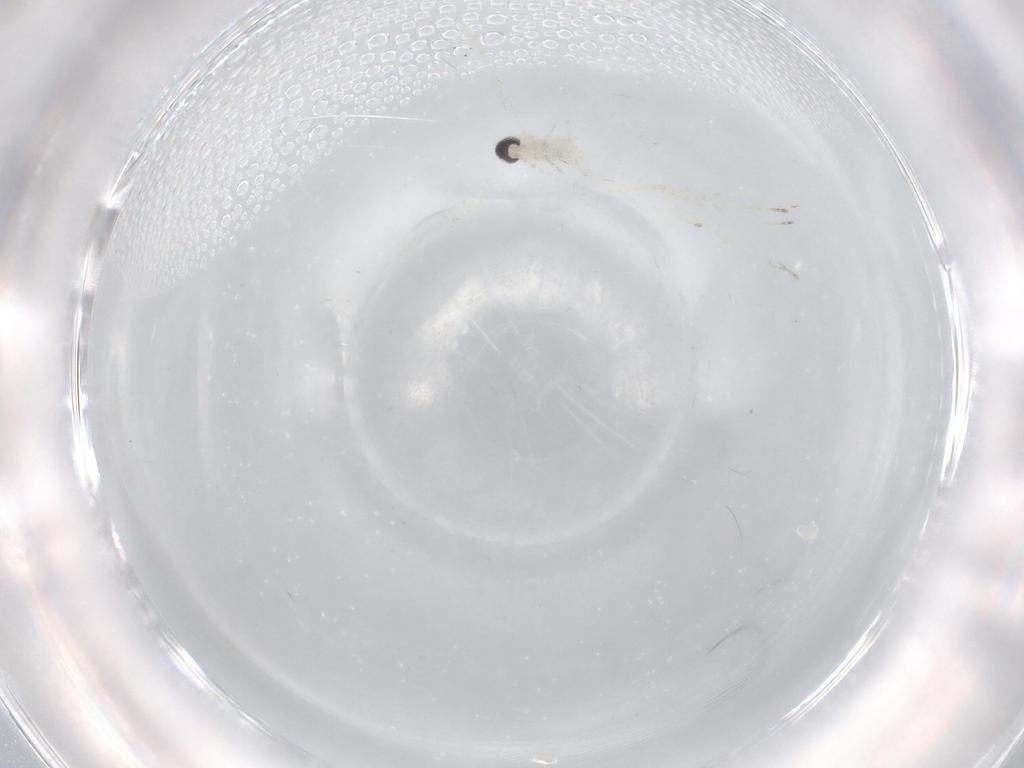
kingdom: Animalia
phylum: Arthropoda
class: Insecta
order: Diptera
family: Cecidomyiidae
